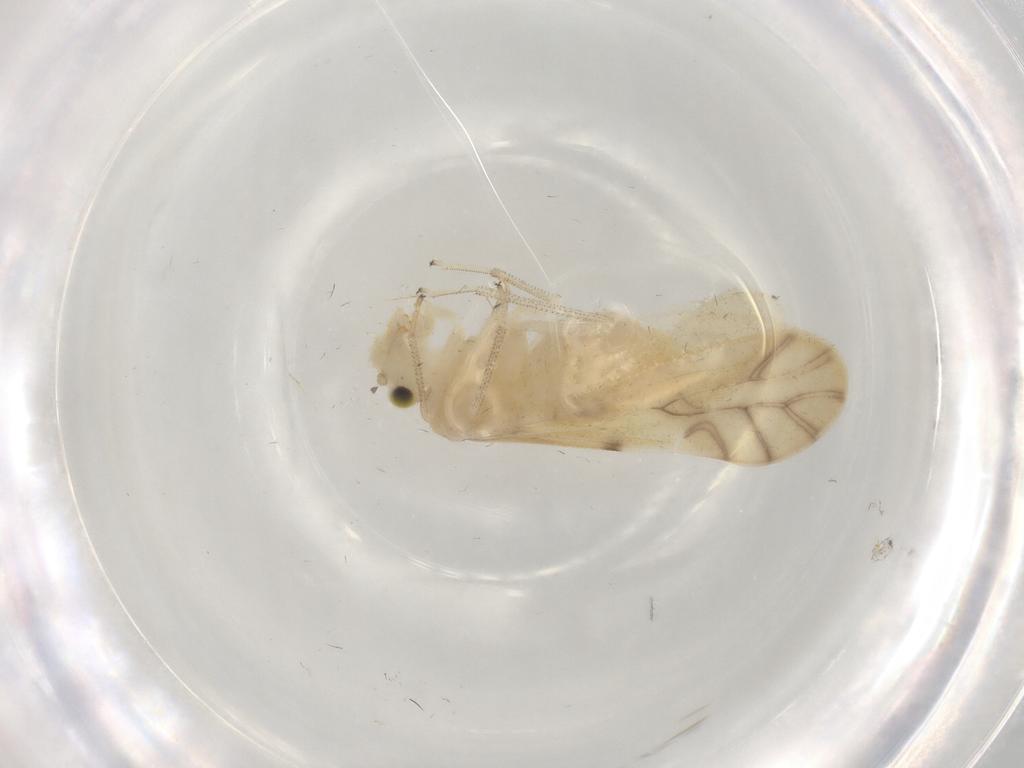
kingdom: Animalia
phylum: Arthropoda
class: Insecta
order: Psocodea
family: Caeciliusidae
